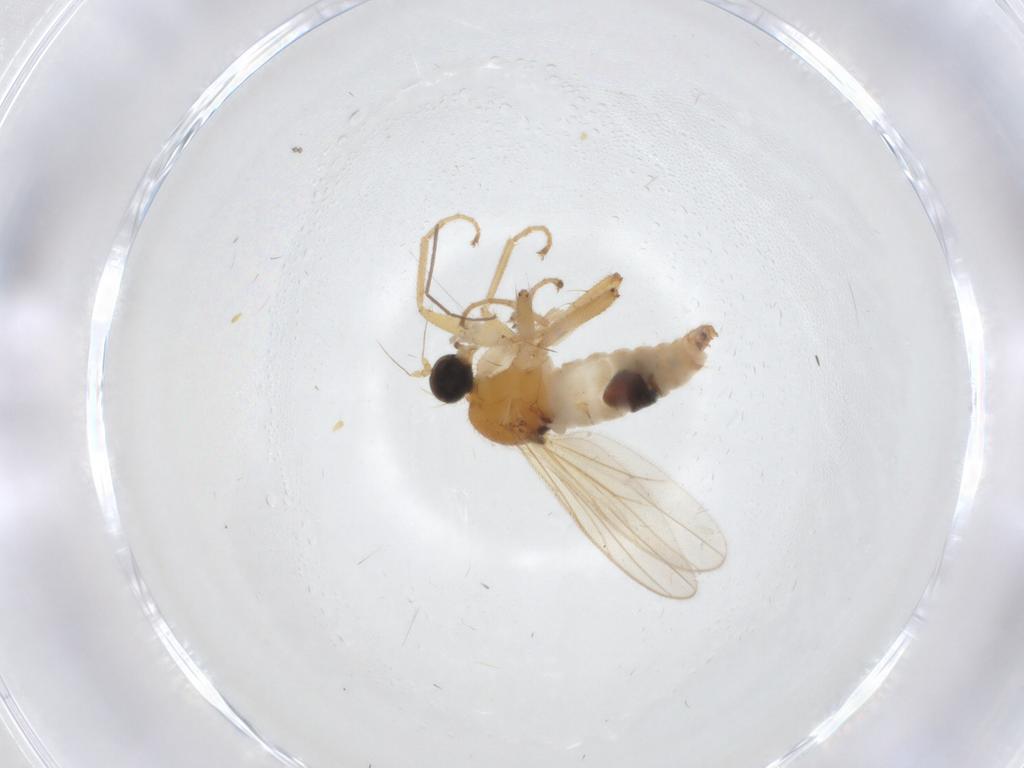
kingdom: Animalia
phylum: Arthropoda
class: Insecta
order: Diptera
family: Hybotidae
